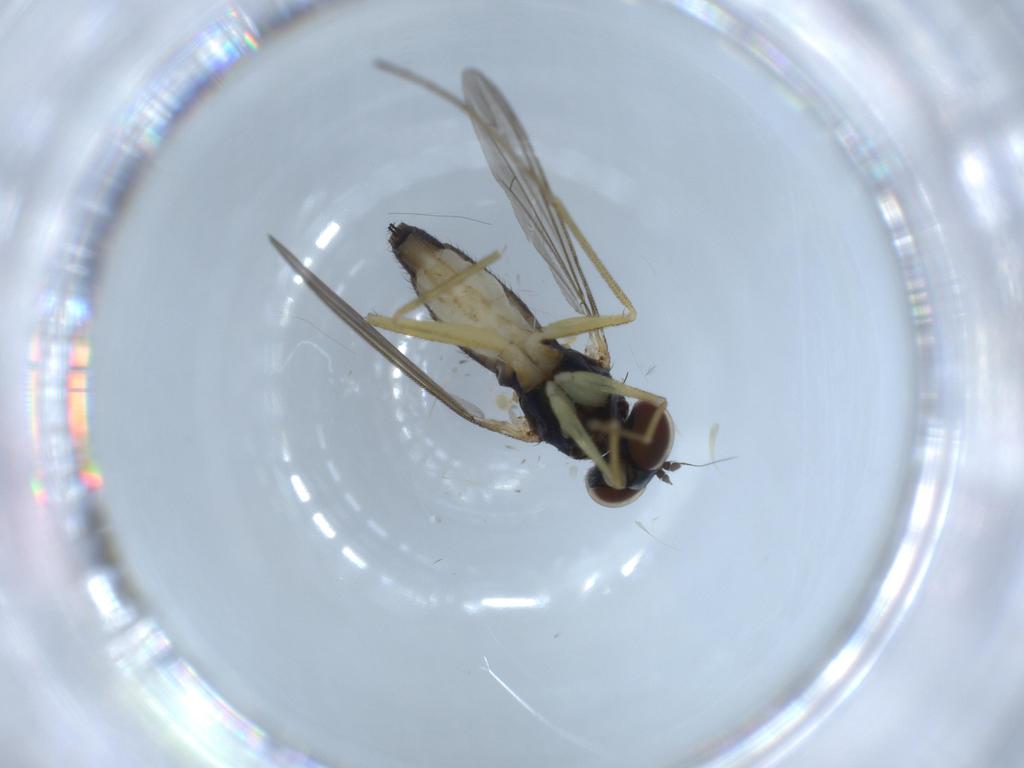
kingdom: Animalia
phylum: Arthropoda
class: Insecta
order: Diptera
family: Dolichopodidae
